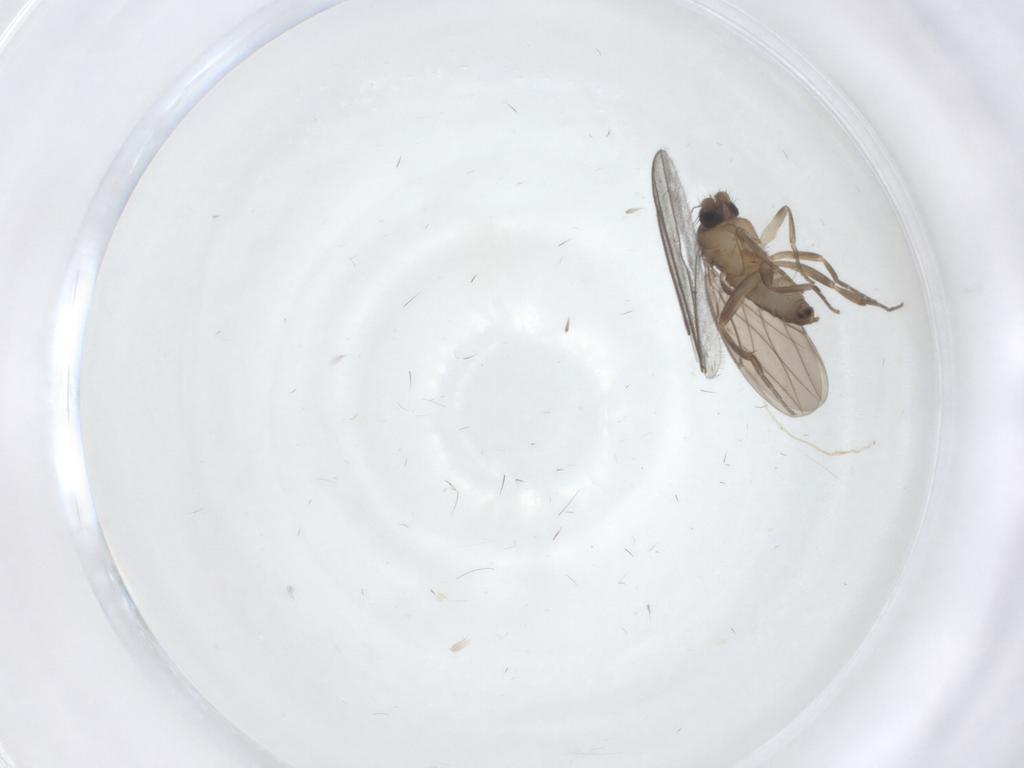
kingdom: Animalia
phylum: Arthropoda
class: Insecta
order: Diptera
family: Ceratopogonidae
